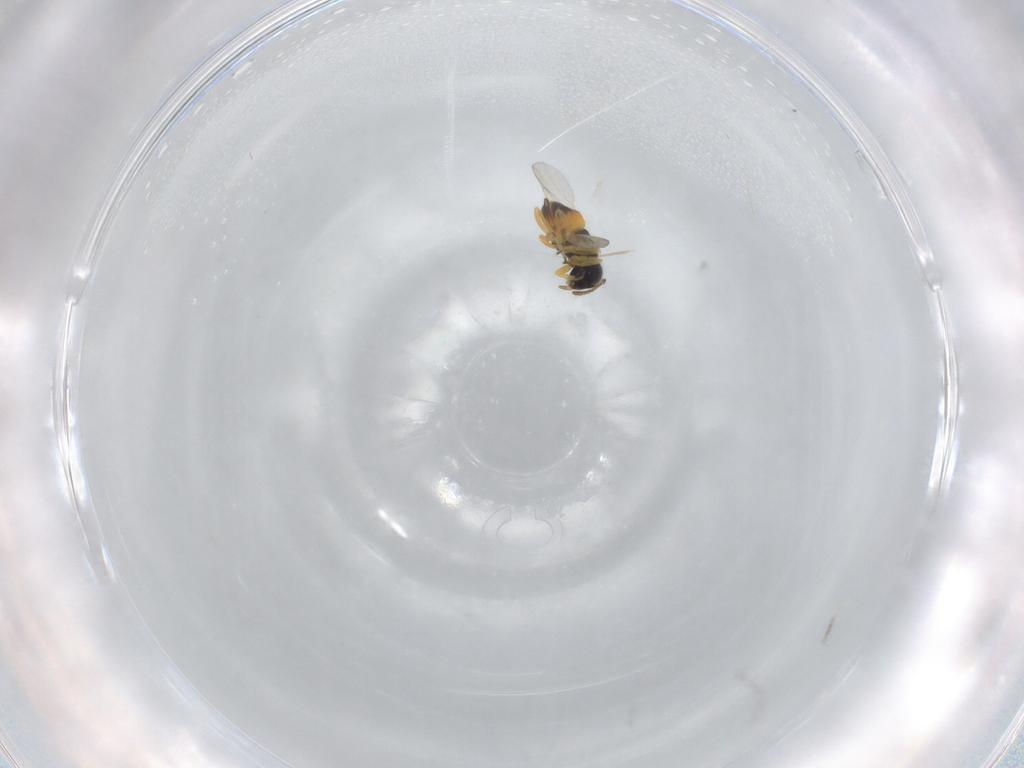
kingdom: Animalia
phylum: Arthropoda
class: Insecta
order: Hymenoptera
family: Encyrtidae
